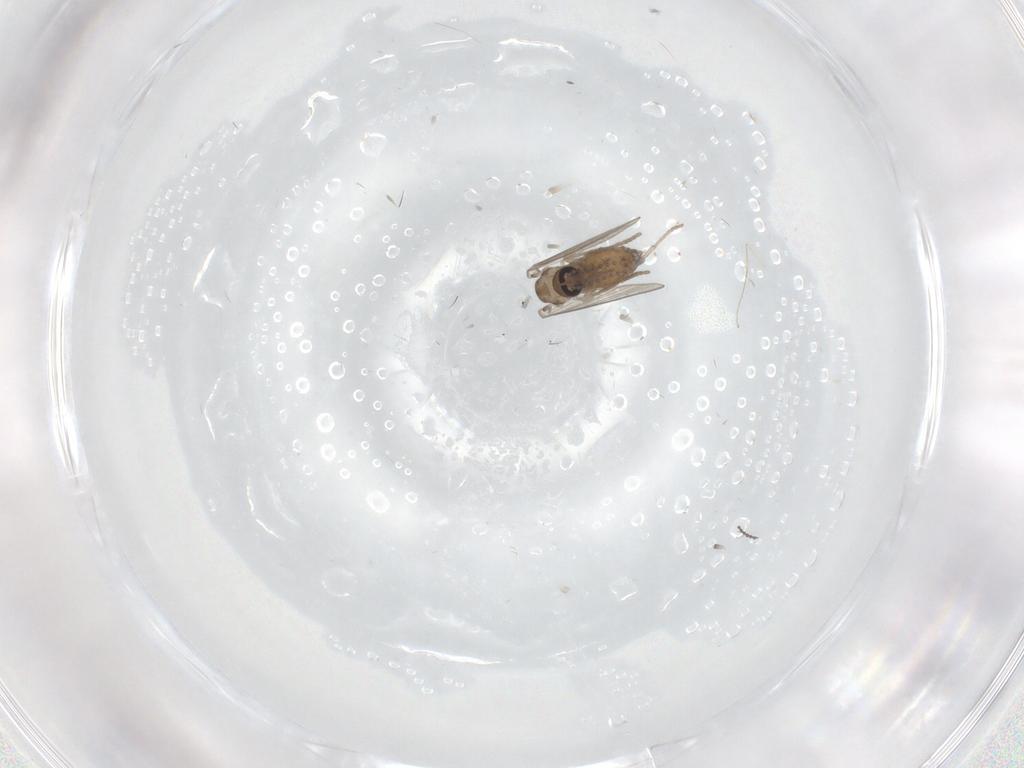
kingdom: Animalia
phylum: Arthropoda
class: Insecta
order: Diptera
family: Psychodidae
